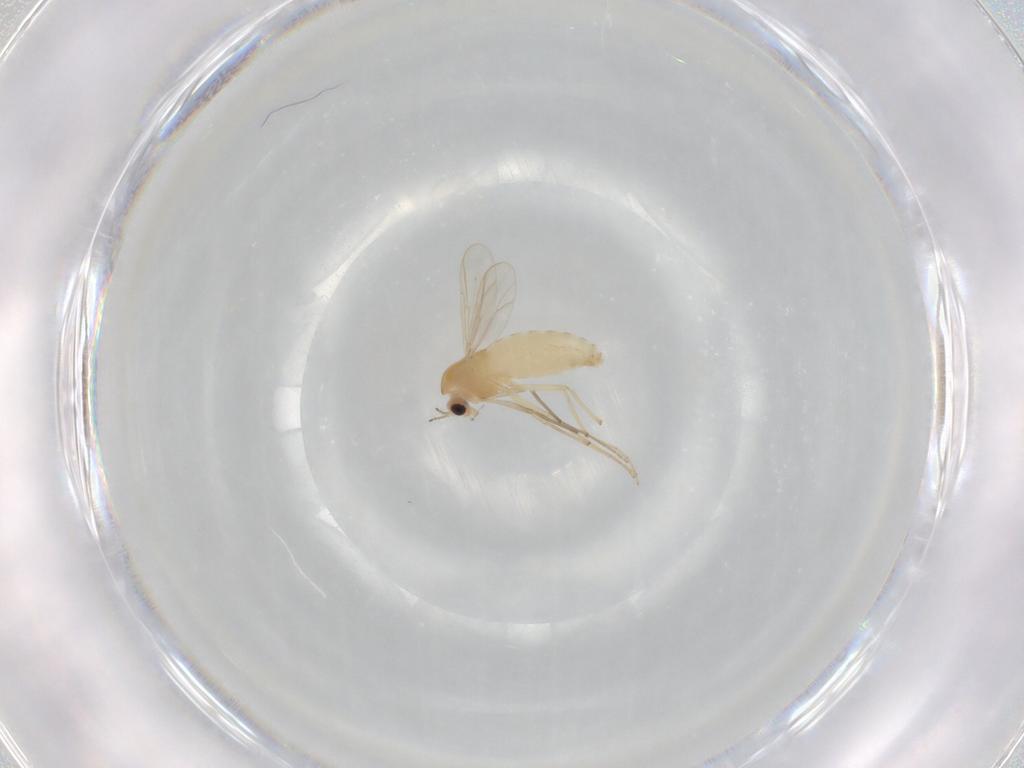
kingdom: Animalia
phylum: Arthropoda
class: Insecta
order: Diptera
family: Chironomidae
